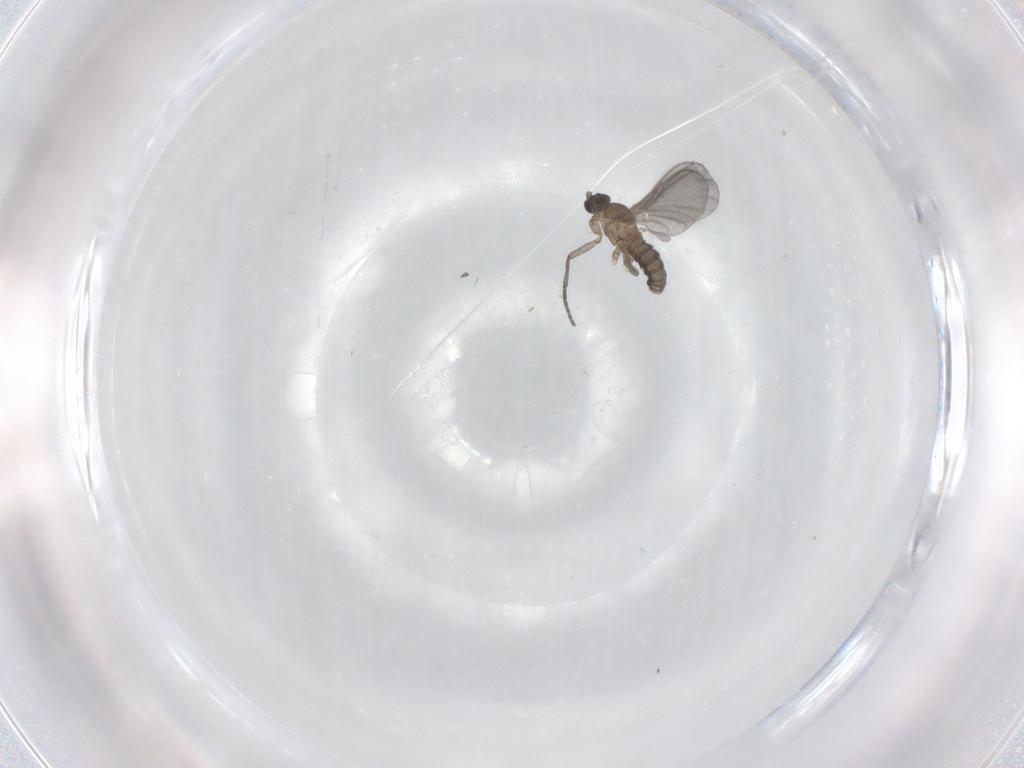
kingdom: Animalia
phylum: Arthropoda
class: Insecta
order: Diptera
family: Sciaridae
